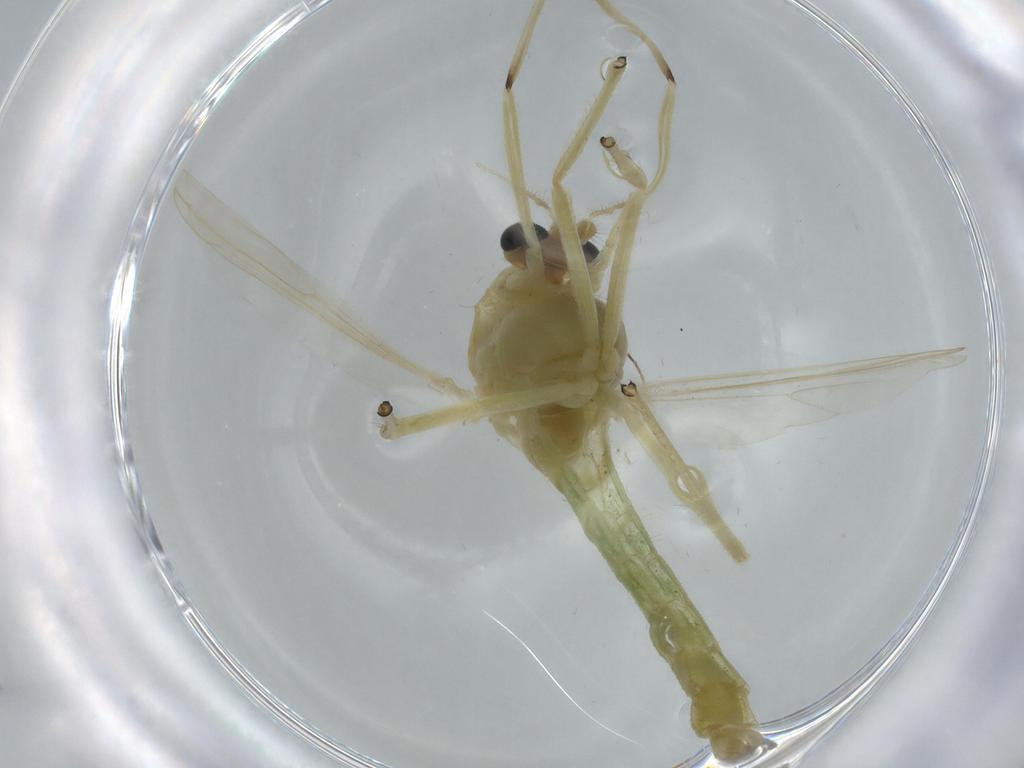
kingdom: Animalia
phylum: Arthropoda
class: Insecta
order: Diptera
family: Chironomidae
